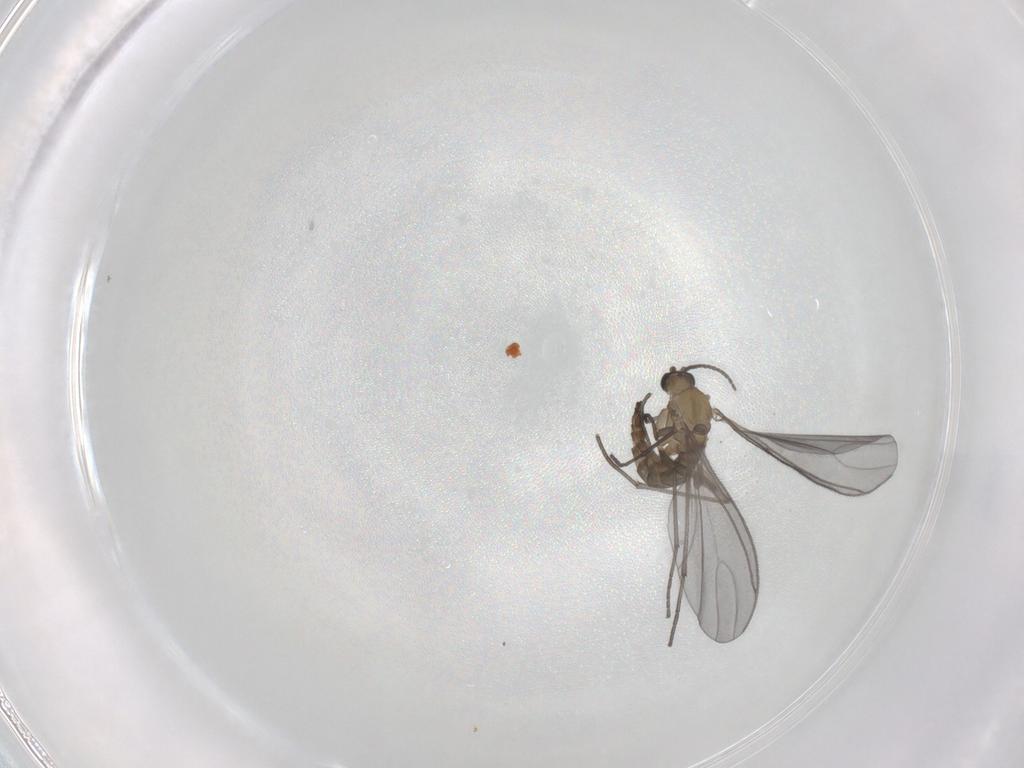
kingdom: Animalia
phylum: Arthropoda
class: Insecta
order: Diptera
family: Sciaridae
